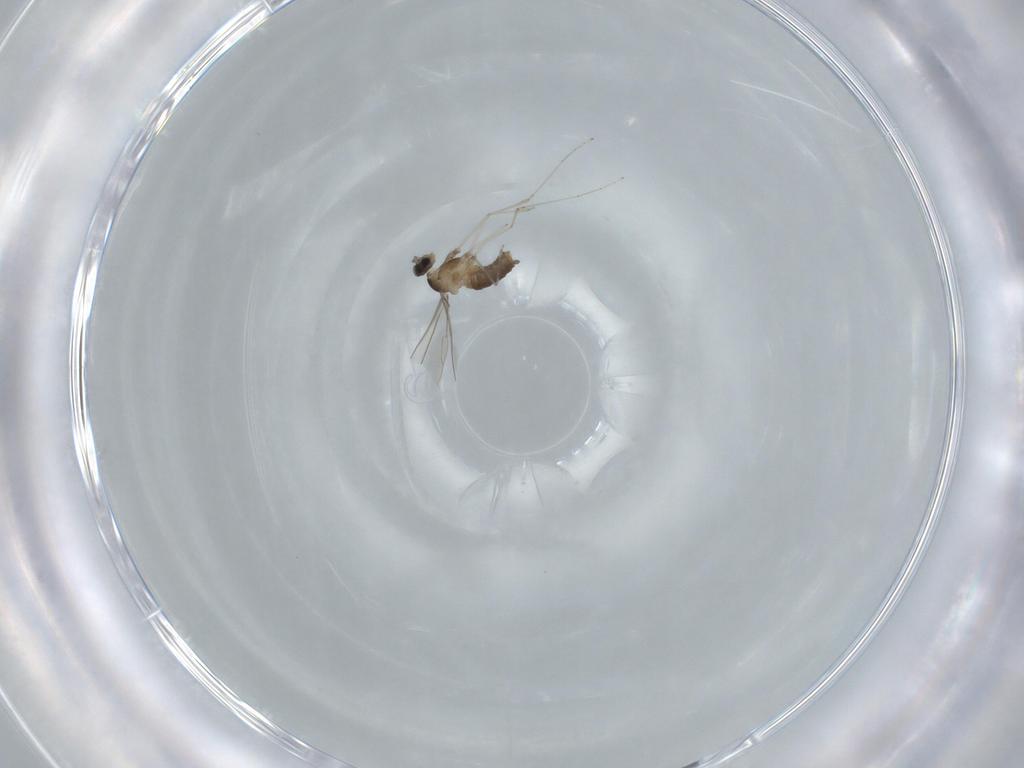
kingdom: Animalia
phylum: Arthropoda
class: Insecta
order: Diptera
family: Cecidomyiidae
